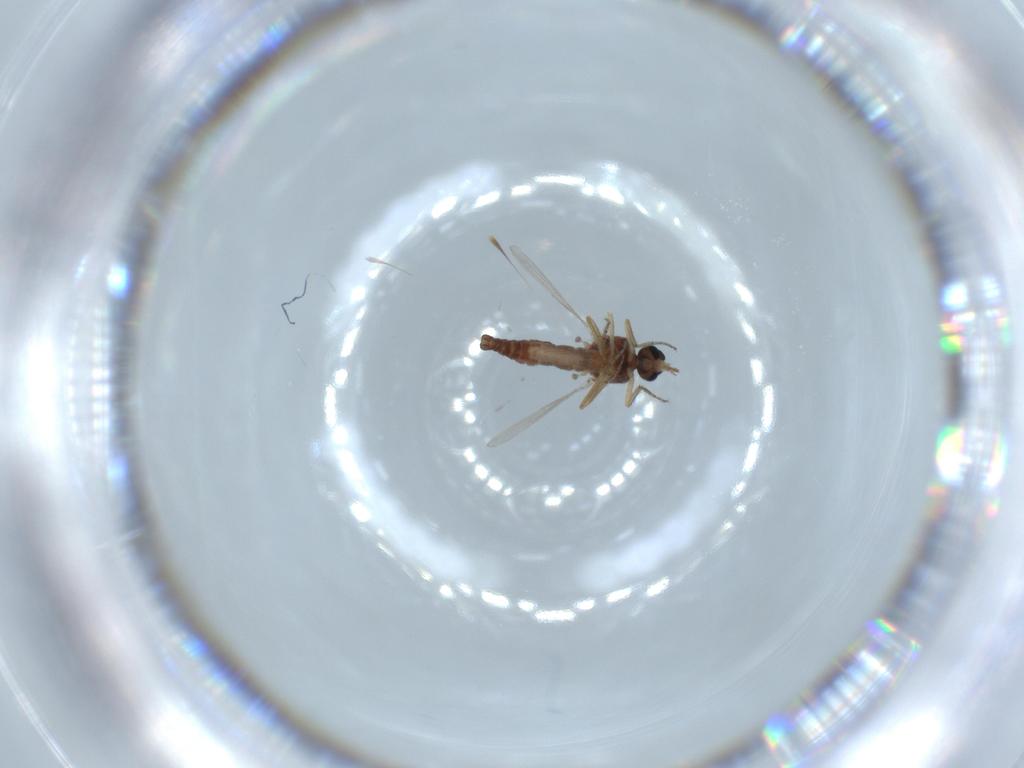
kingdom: Animalia
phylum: Arthropoda
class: Insecta
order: Diptera
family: Ceratopogonidae
